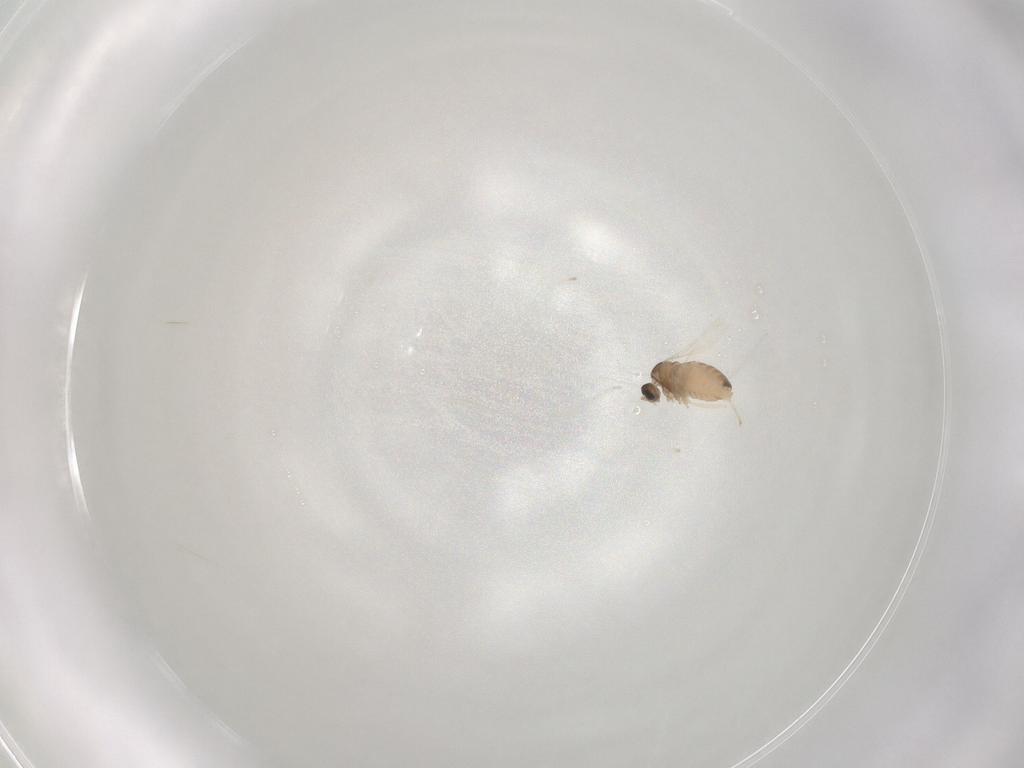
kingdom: Animalia
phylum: Arthropoda
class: Insecta
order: Diptera
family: Cecidomyiidae
